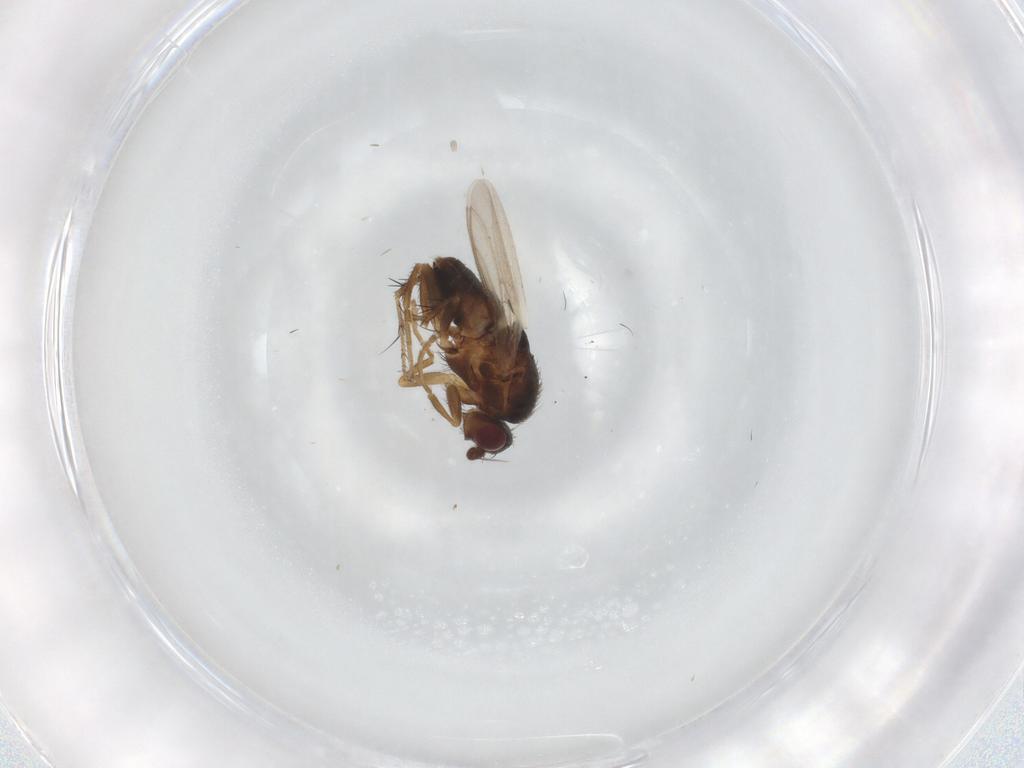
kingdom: Animalia
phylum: Arthropoda
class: Insecta
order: Diptera
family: Sphaeroceridae
